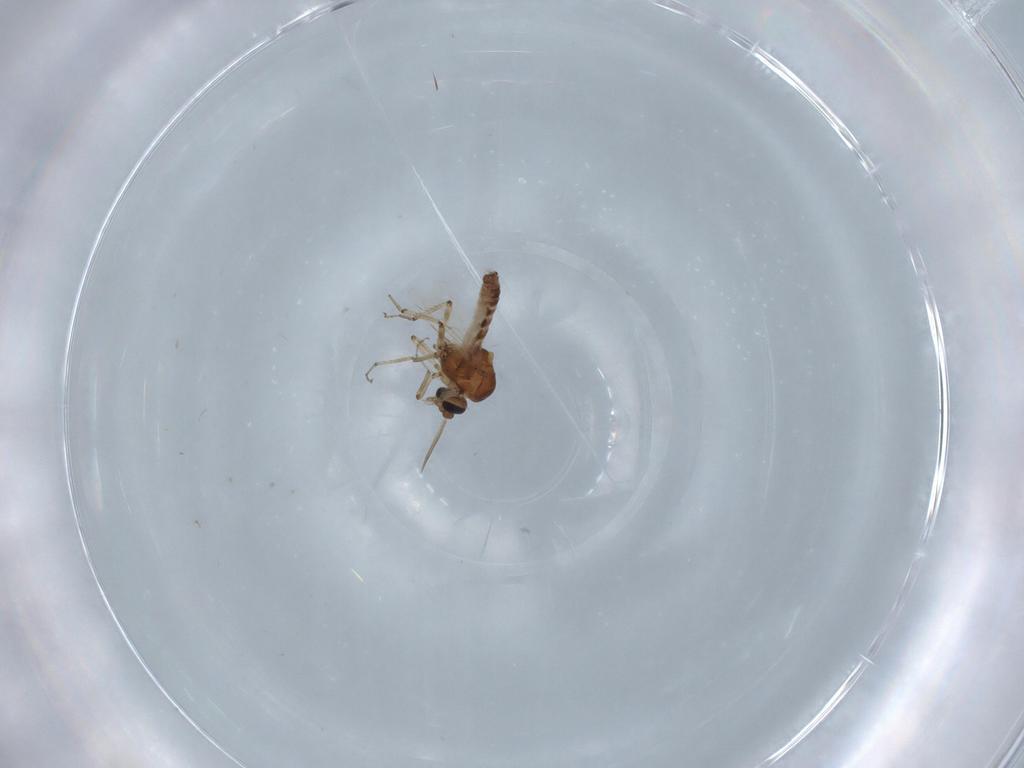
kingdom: Animalia
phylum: Arthropoda
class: Insecta
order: Diptera
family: Ceratopogonidae
